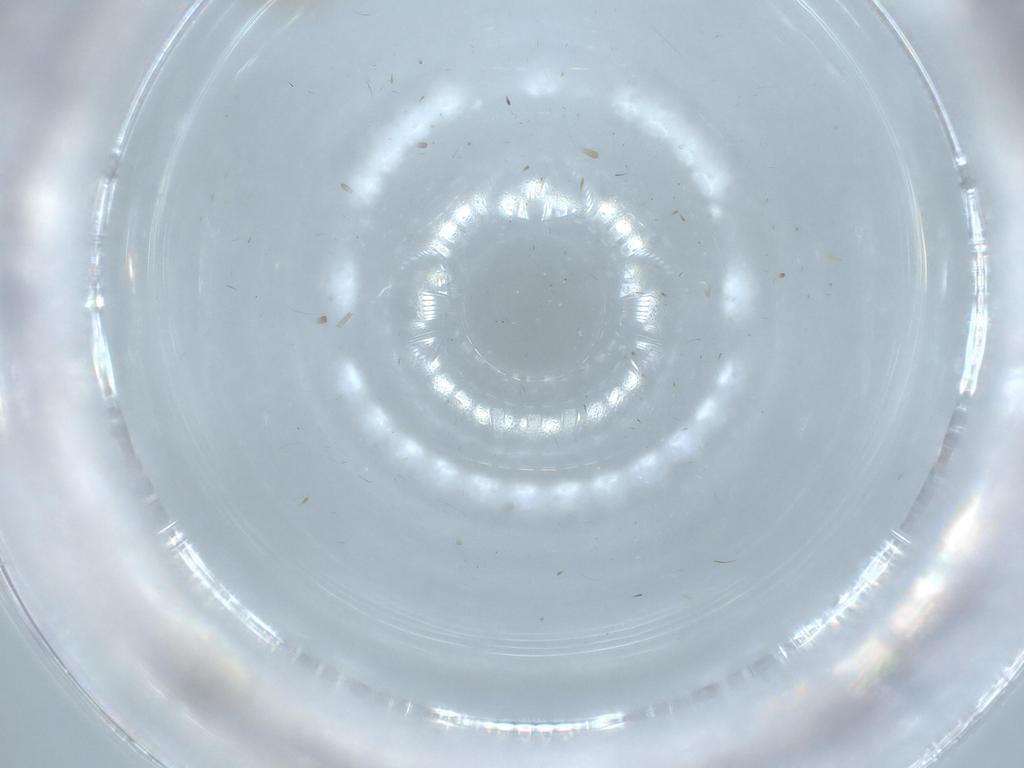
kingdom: Animalia
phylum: Arthropoda
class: Insecta
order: Diptera
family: Cecidomyiidae
